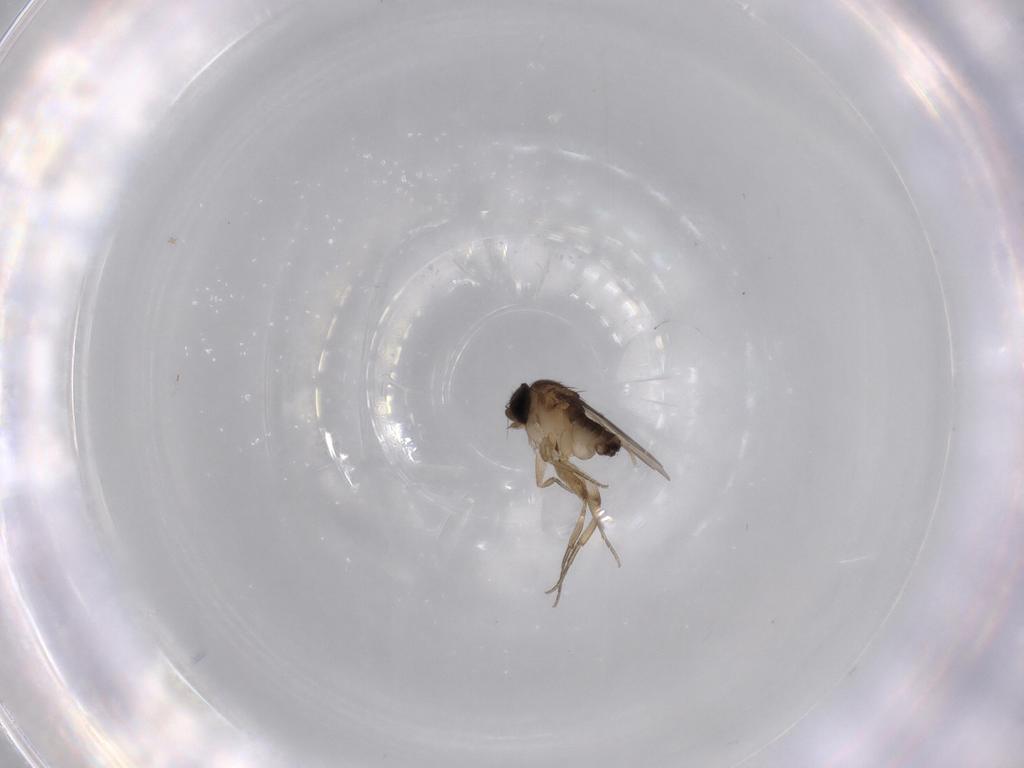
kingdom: Animalia
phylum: Arthropoda
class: Insecta
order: Diptera
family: Phoridae
